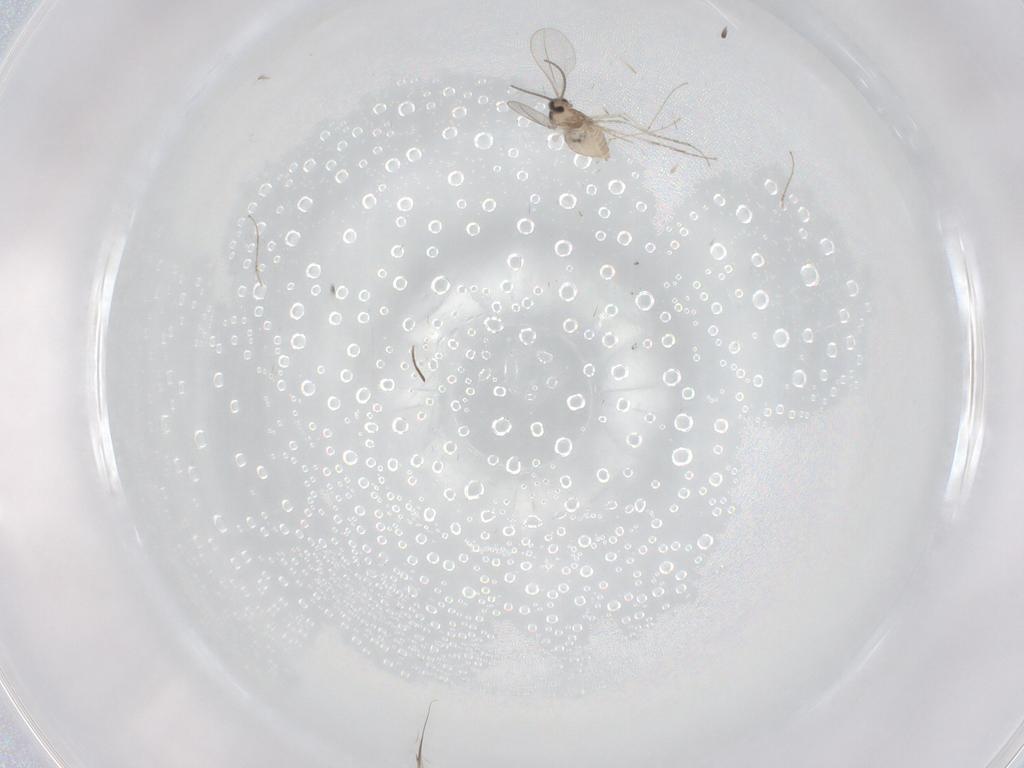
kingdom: Animalia
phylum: Arthropoda
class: Insecta
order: Diptera
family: Cecidomyiidae
